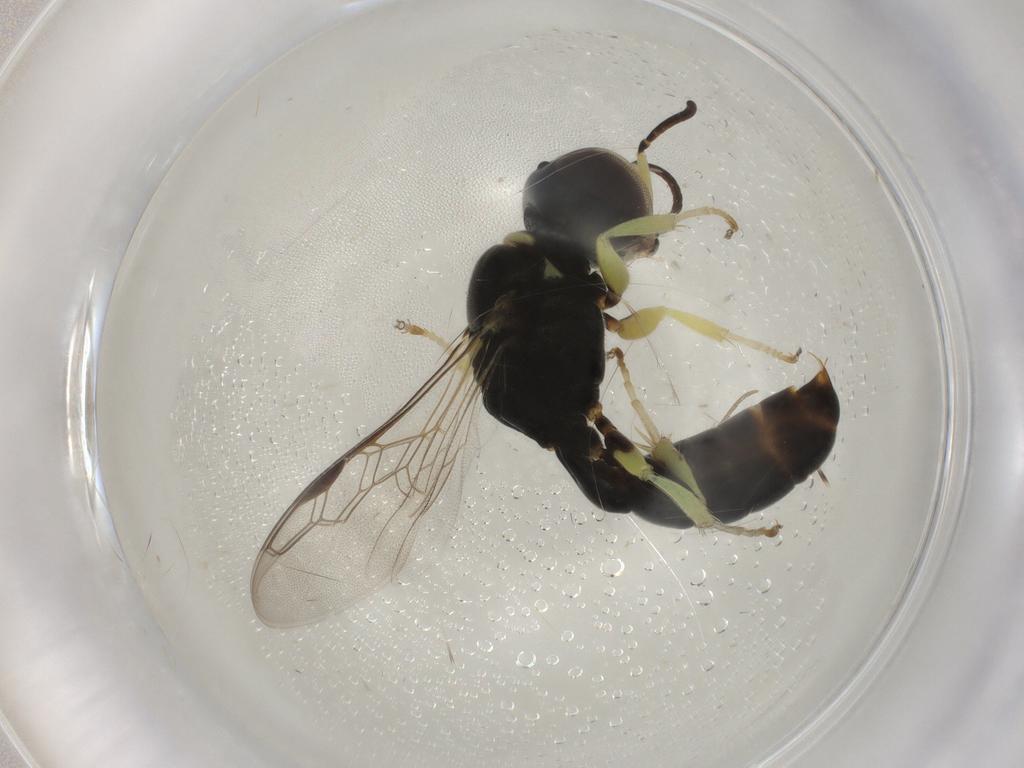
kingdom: Animalia
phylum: Arthropoda
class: Insecta
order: Hymenoptera
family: Crabronidae
